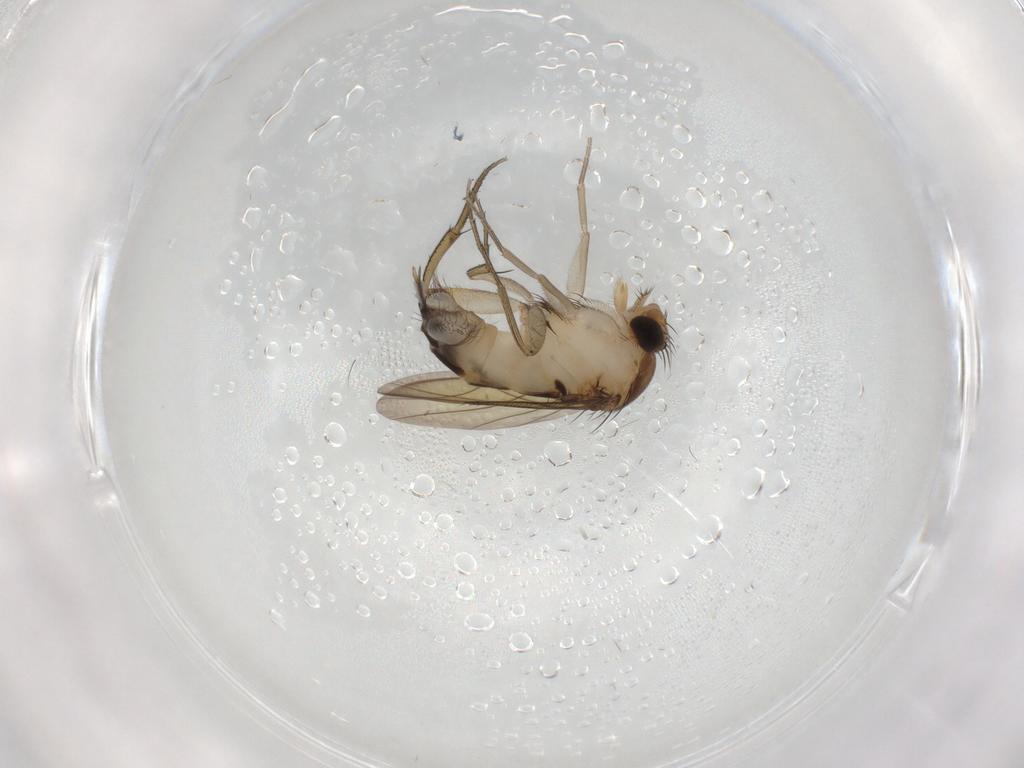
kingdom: Animalia
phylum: Arthropoda
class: Insecta
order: Diptera
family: Phoridae
